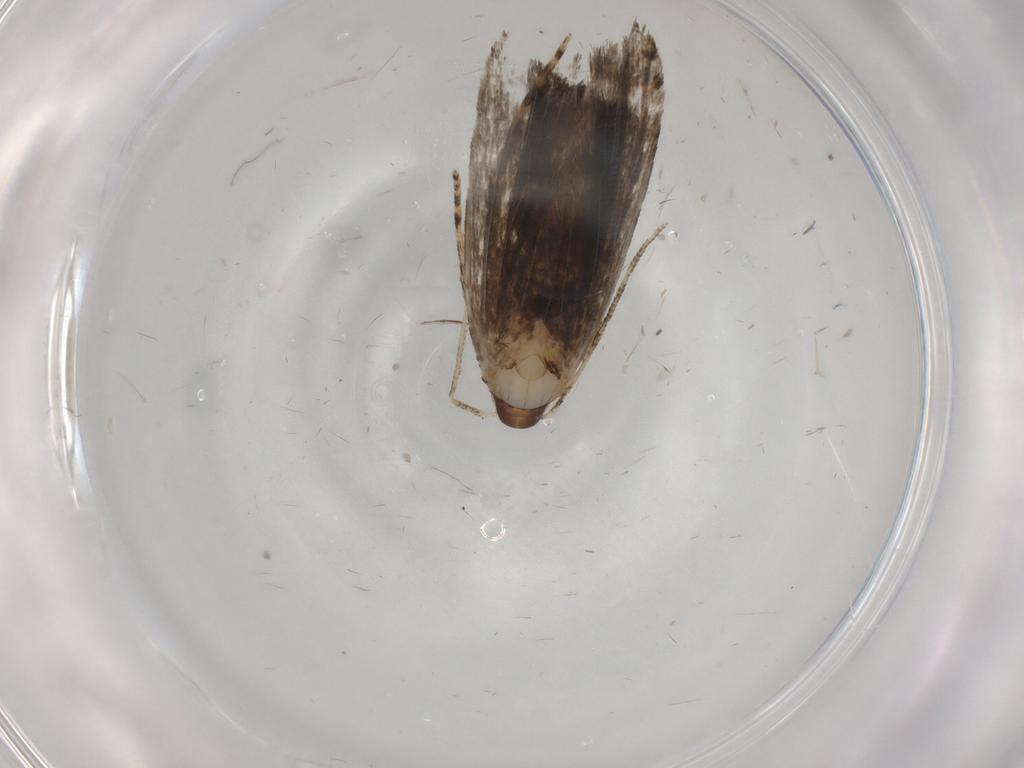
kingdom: Animalia
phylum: Arthropoda
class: Insecta
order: Lepidoptera
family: Gelechiidae
